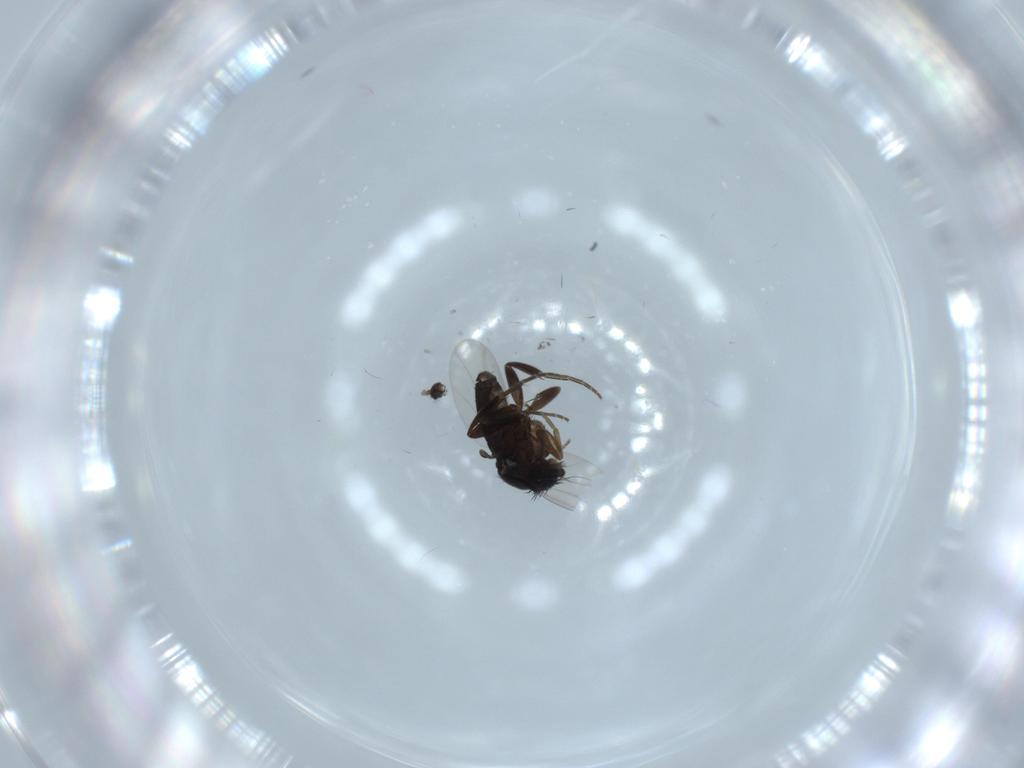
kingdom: Animalia
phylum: Arthropoda
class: Insecta
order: Diptera
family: Phoridae
